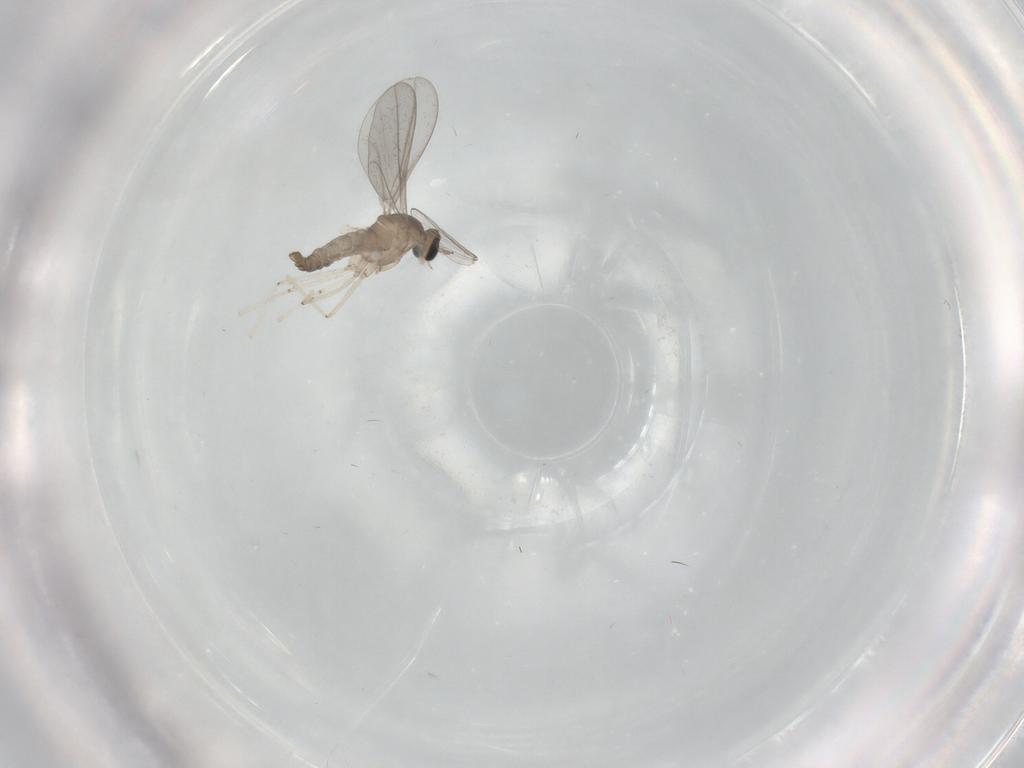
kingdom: Animalia
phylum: Arthropoda
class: Insecta
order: Diptera
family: Cecidomyiidae
